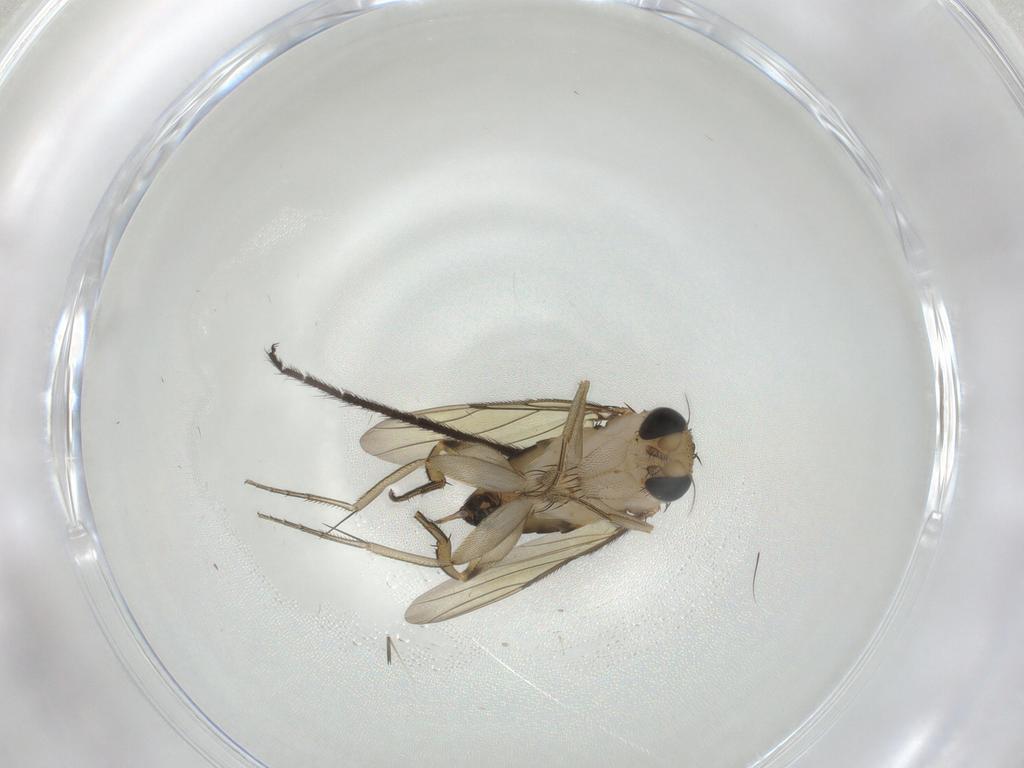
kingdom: Animalia
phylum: Arthropoda
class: Insecta
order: Diptera
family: Phoridae
